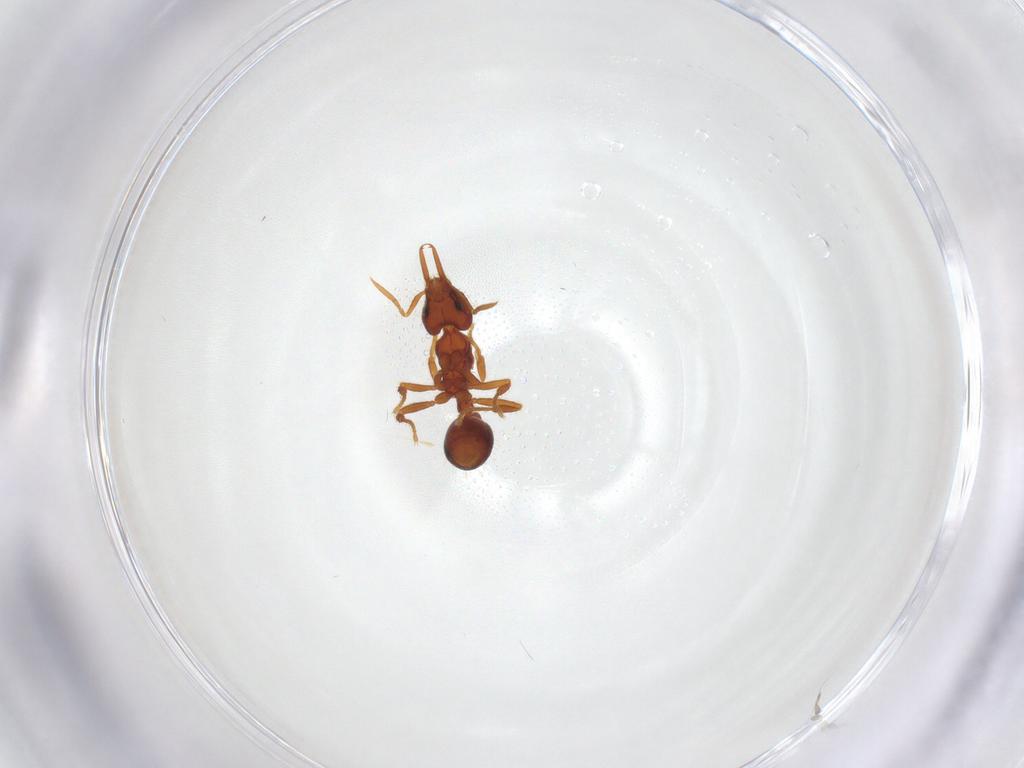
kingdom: Animalia
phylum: Arthropoda
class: Insecta
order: Hymenoptera
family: Formicidae
